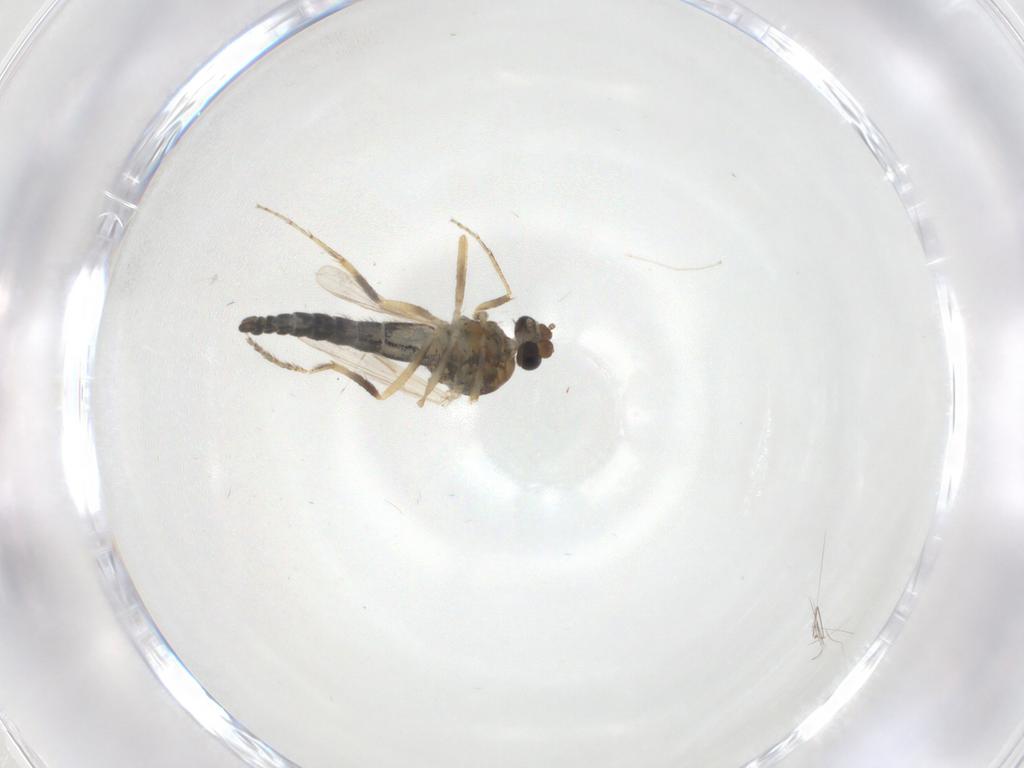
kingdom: Animalia
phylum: Arthropoda
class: Insecta
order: Diptera
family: Ceratopogonidae
